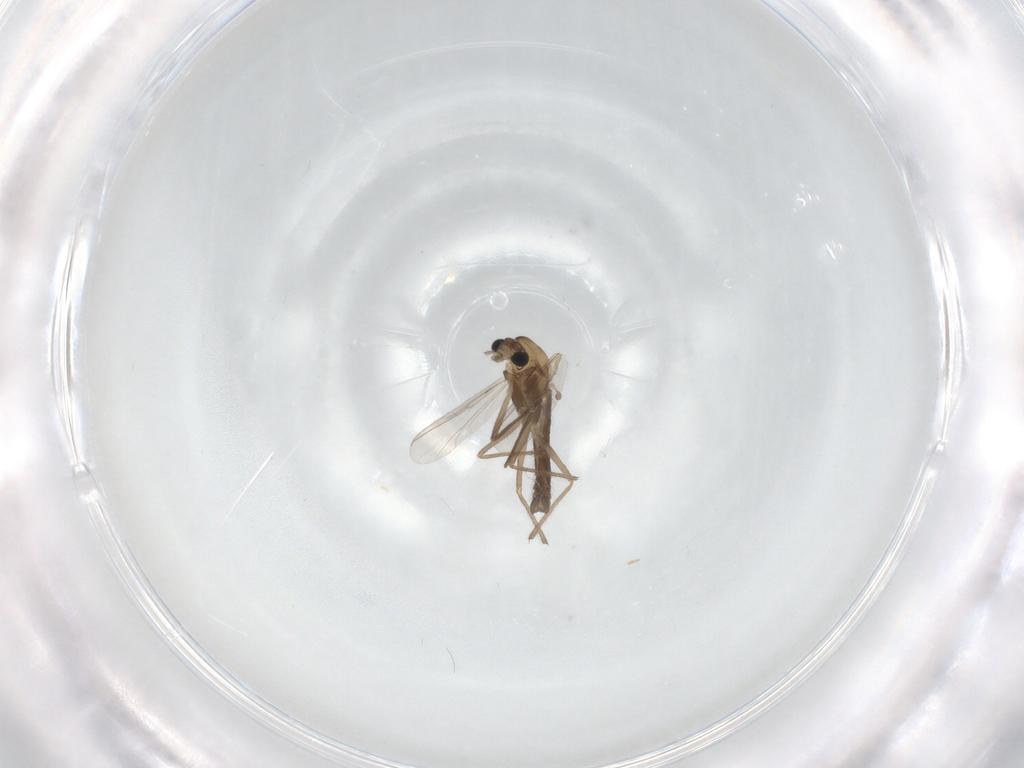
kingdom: Animalia
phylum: Arthropoda
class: Insecta
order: Diptera
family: Chironomidae
